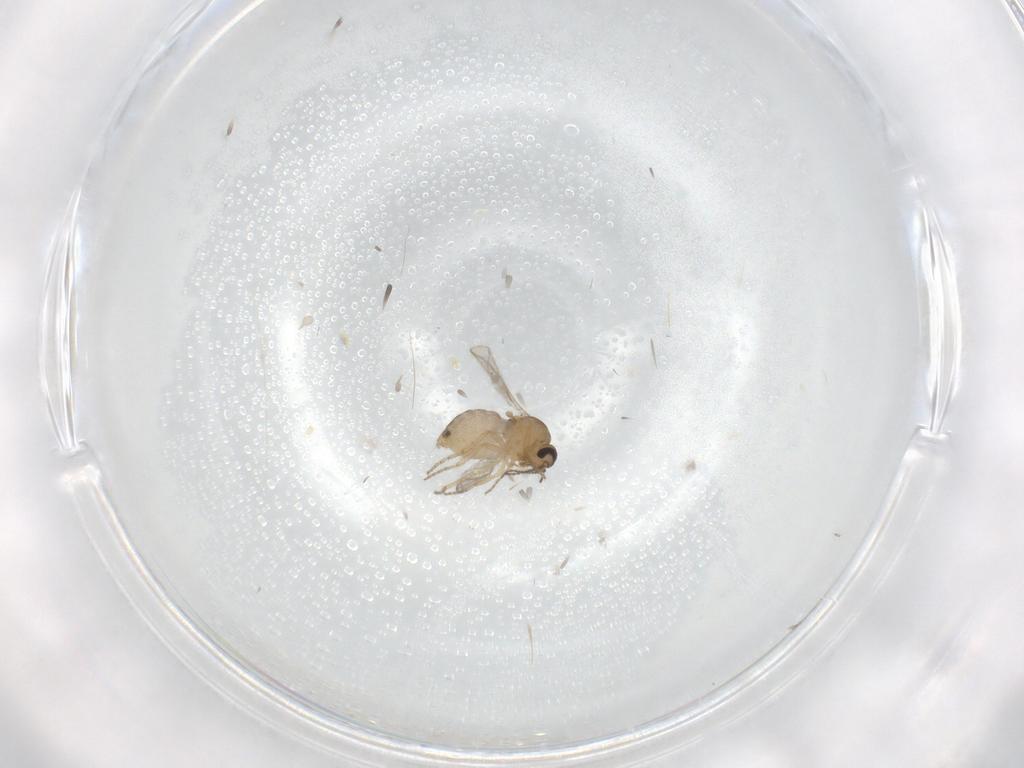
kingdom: Animalia
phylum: Arthropoda
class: Insecta
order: Diptera
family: Ceratopogonidae
